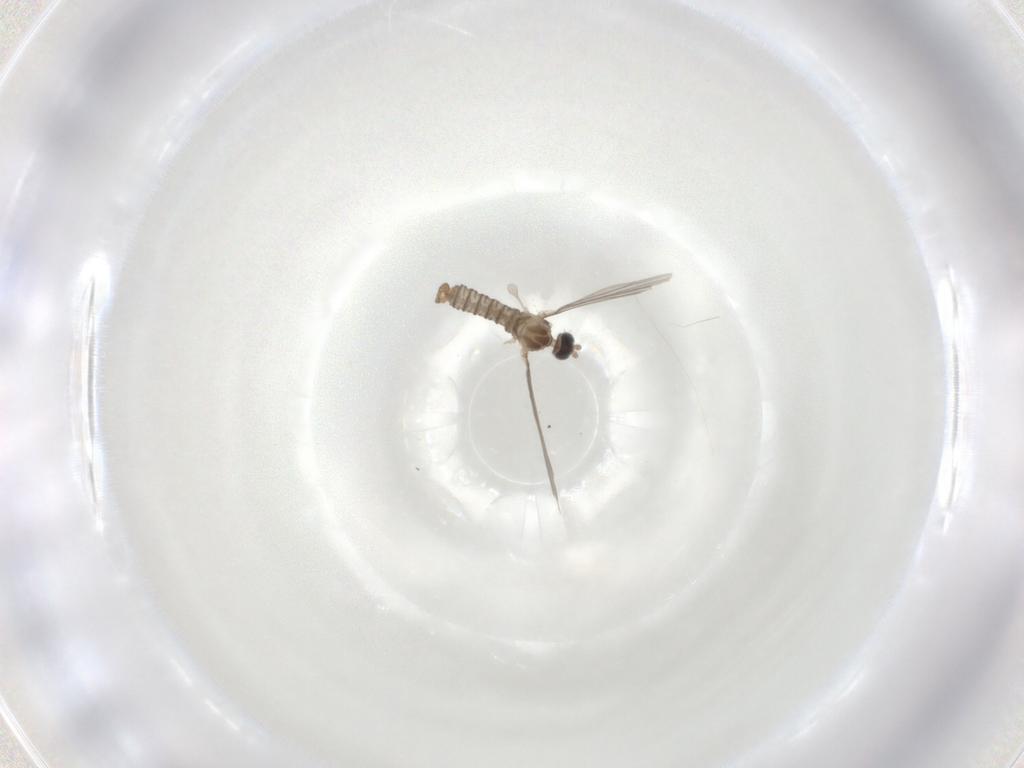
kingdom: Animalia
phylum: Arthropoda
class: Insecta
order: Diptera
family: Cecidomyiidae
